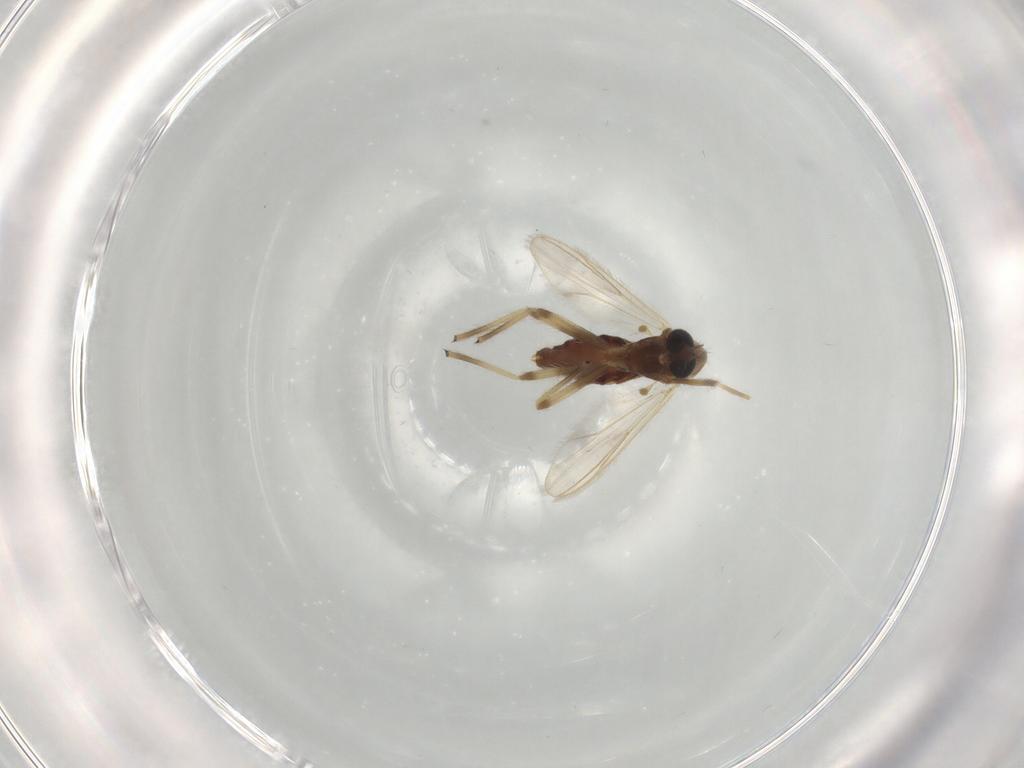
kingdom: Animalia
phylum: Arthropoda
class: Insecta
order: Diptera
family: Chironomidae
